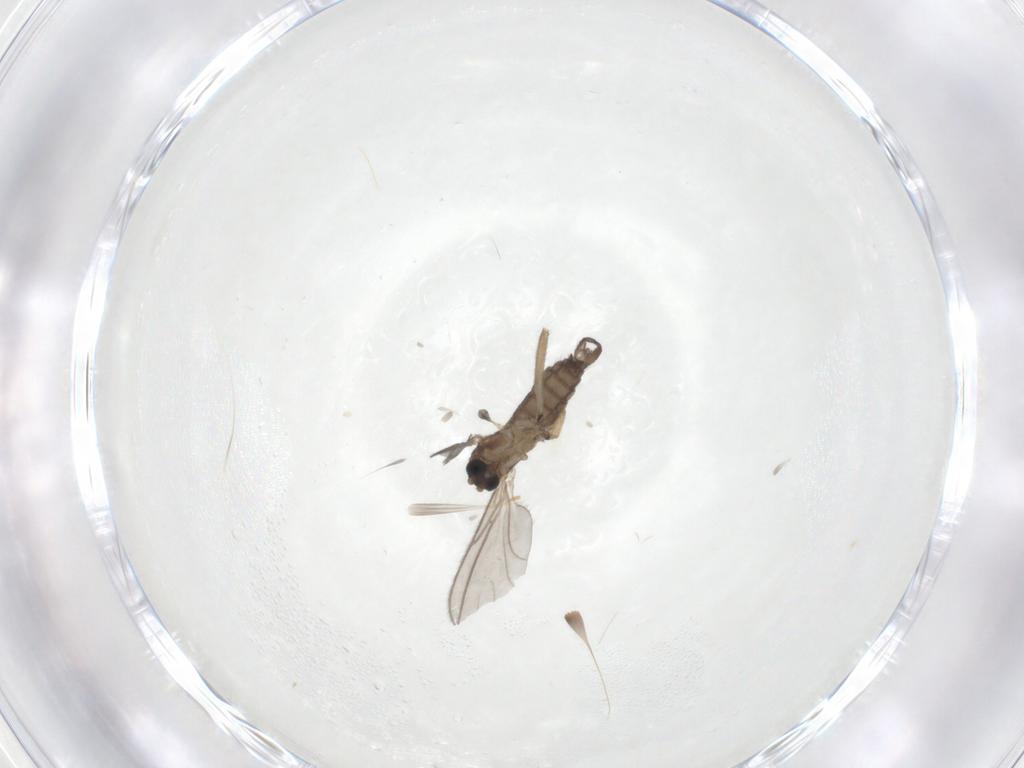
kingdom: Animalia
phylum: Arthropoda
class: Insecta
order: Diptera
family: Sciaridae
